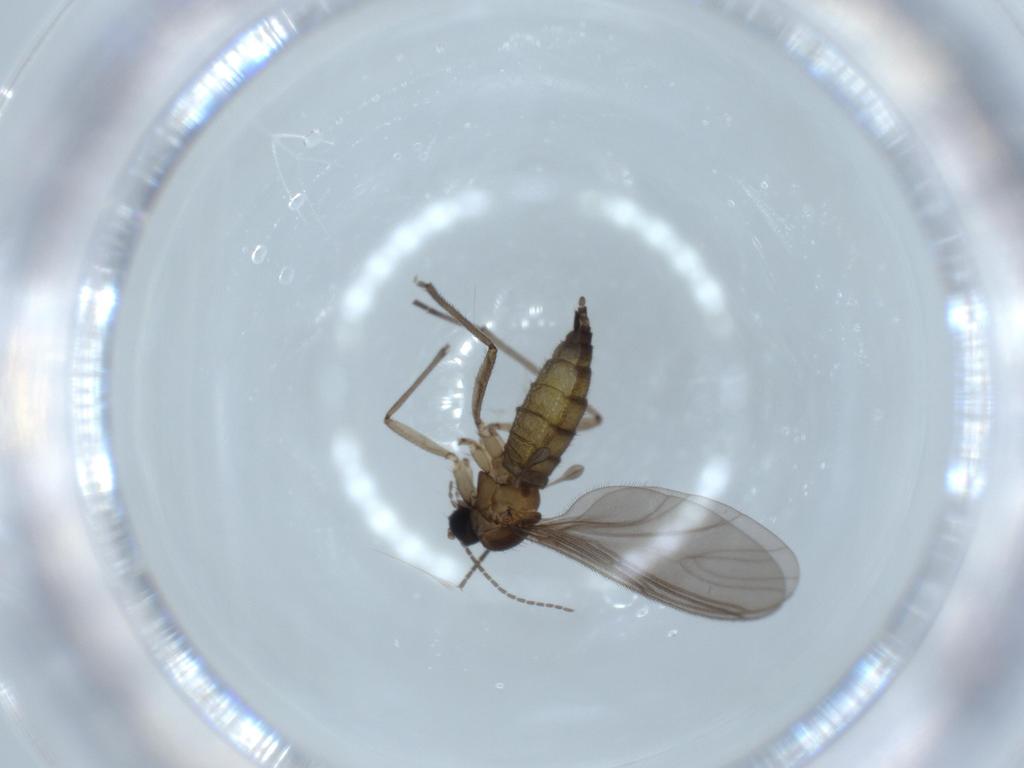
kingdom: Animalia
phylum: Arthropoda
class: Insecta
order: Diptera
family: Sciaridae
